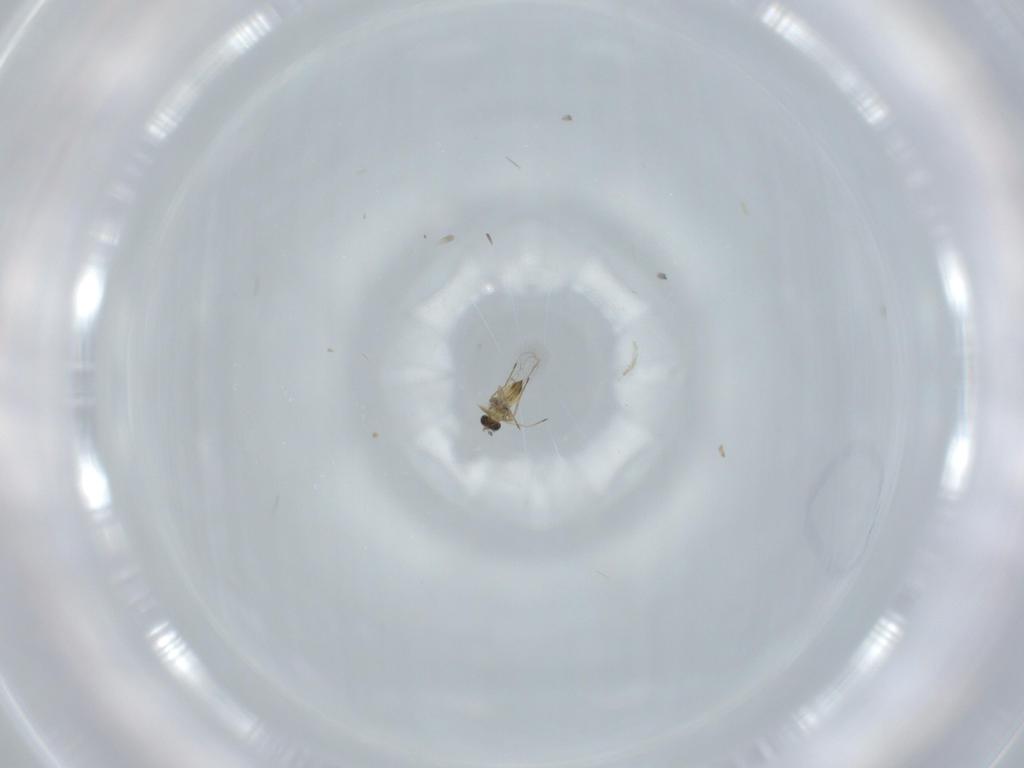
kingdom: Animalia
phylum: Arthropoda
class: Insecta
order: Hymenoptera
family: Trichogrammatidae
